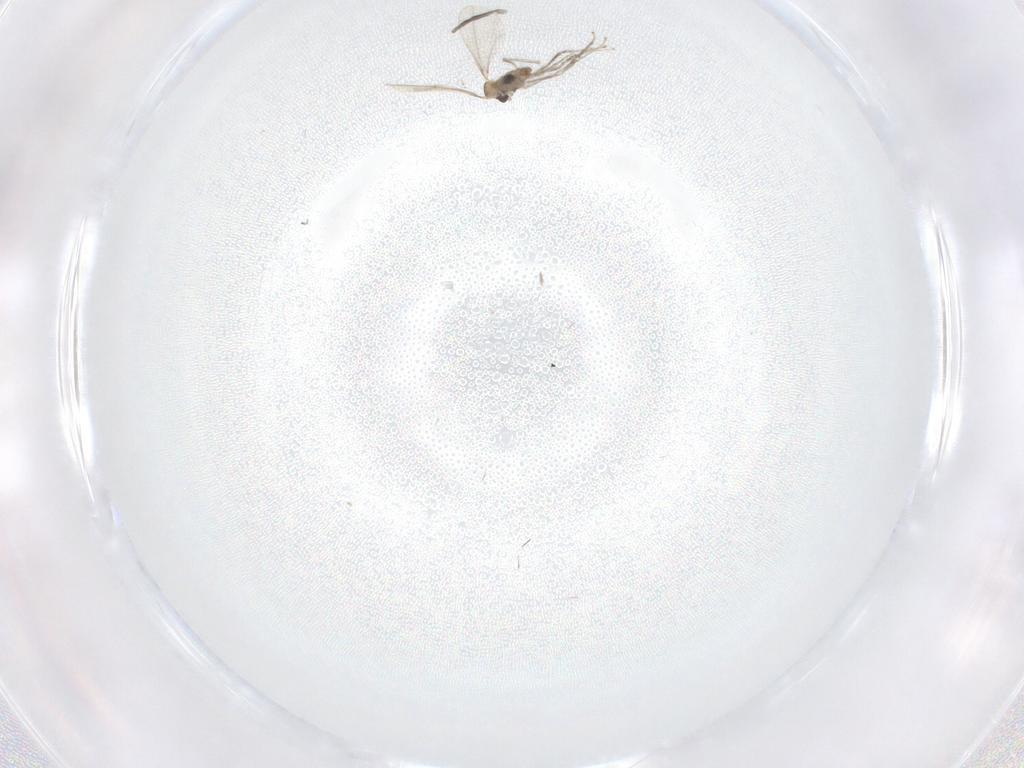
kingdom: Animalia
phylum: Arthropoda
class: Insecta
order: Diptera
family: Cecidomyiidae
